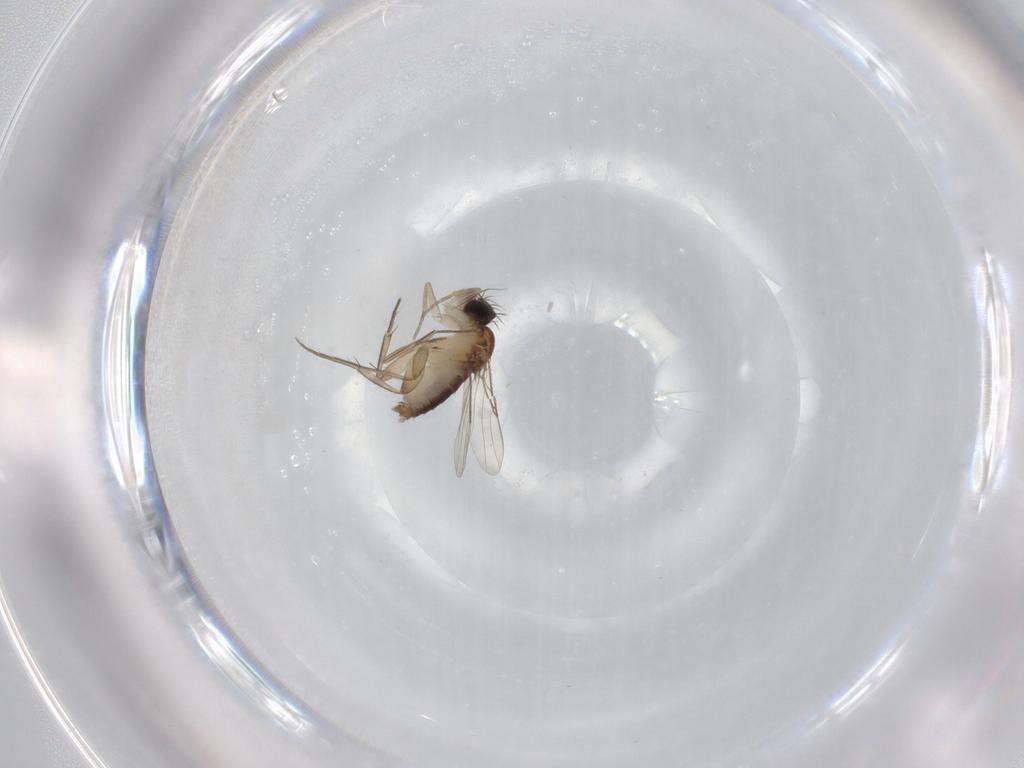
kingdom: Animalia
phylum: Arthropoda
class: Insecta
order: Diptera
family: Phoridae
